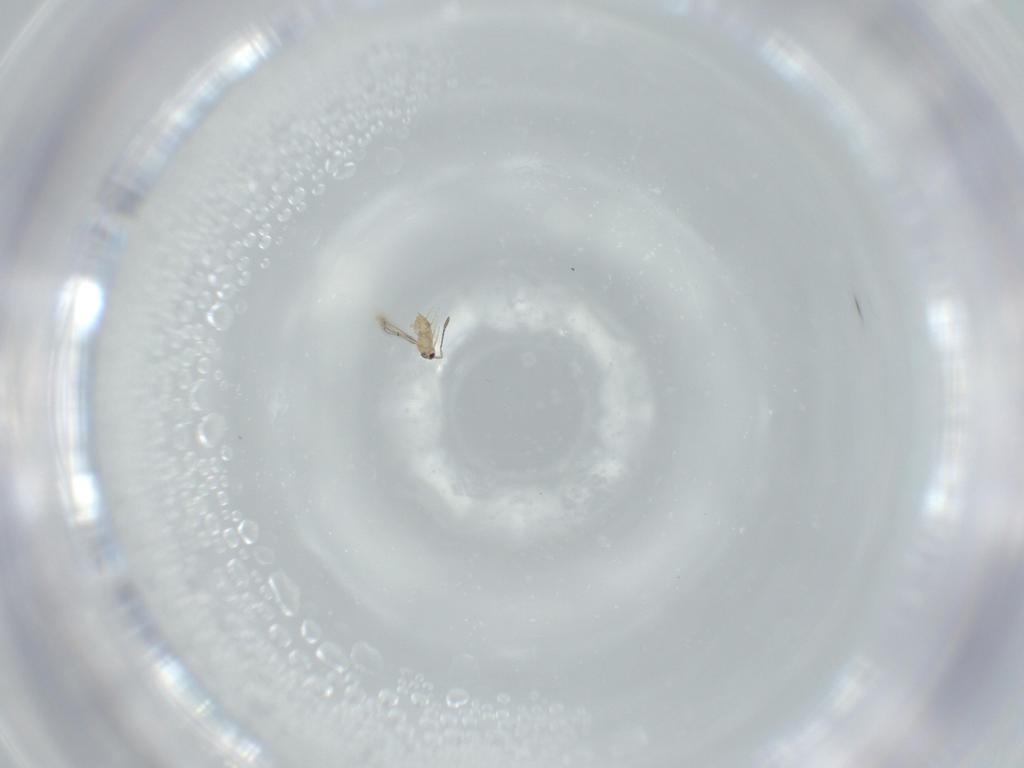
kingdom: Animalia
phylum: Arthropoda
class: Insecta
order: Hymenoptera
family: Mymaridae
